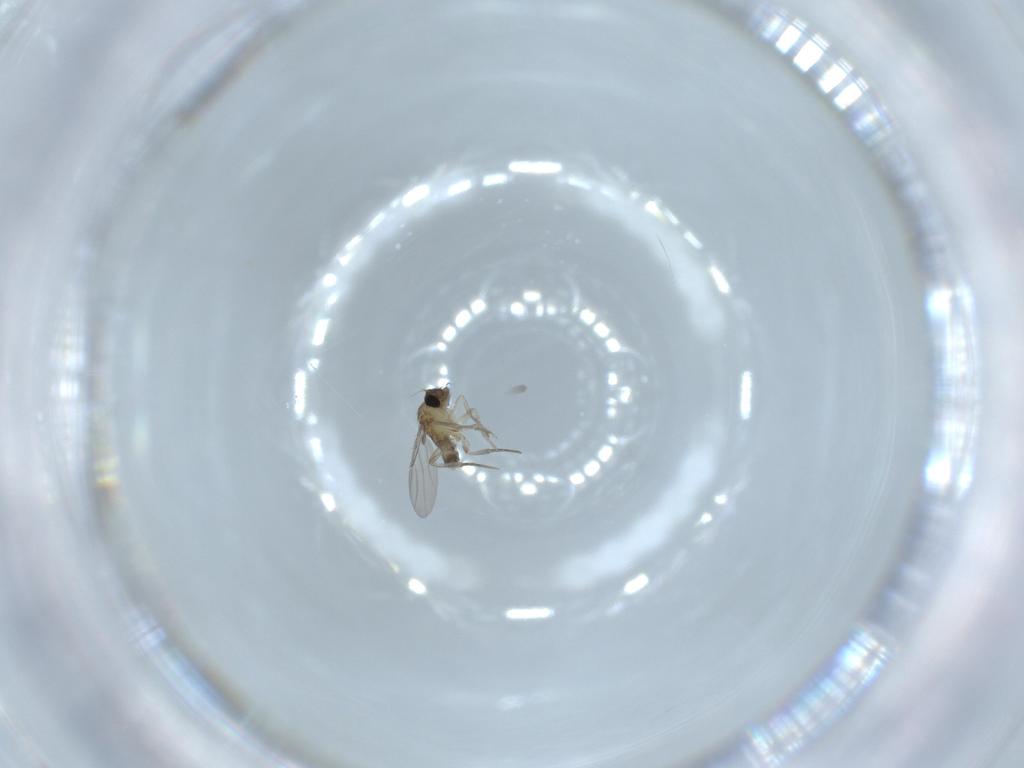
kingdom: Animalia
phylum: Arthropoda
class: Insecta
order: Diptera
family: Phoridae
